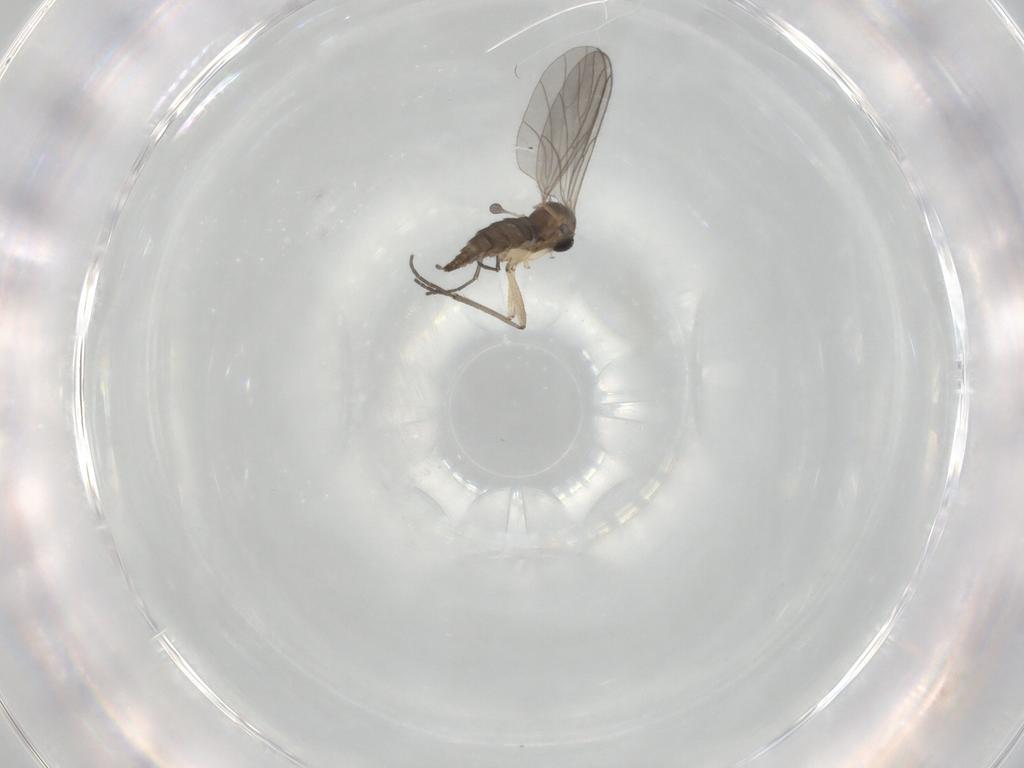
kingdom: Animalia
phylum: Arthropoda
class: Insecta
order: Diptera
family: Sciaridae
